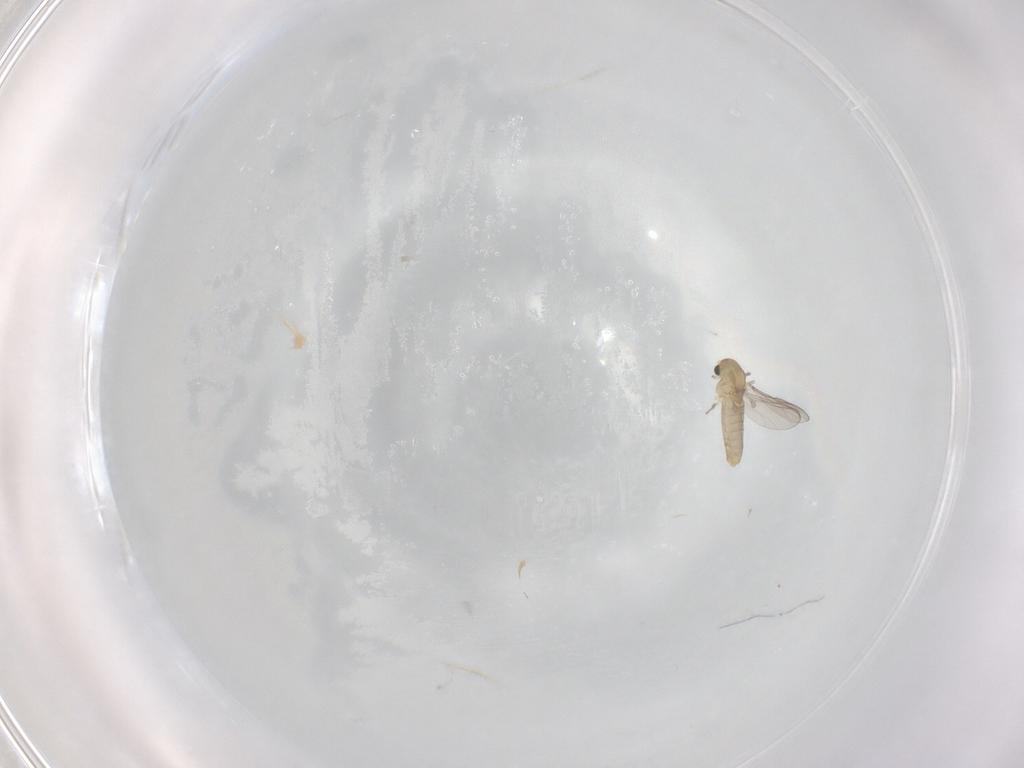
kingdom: Animalia
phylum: Arthropoda
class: Insecta
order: Diptera
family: Chironomidae
